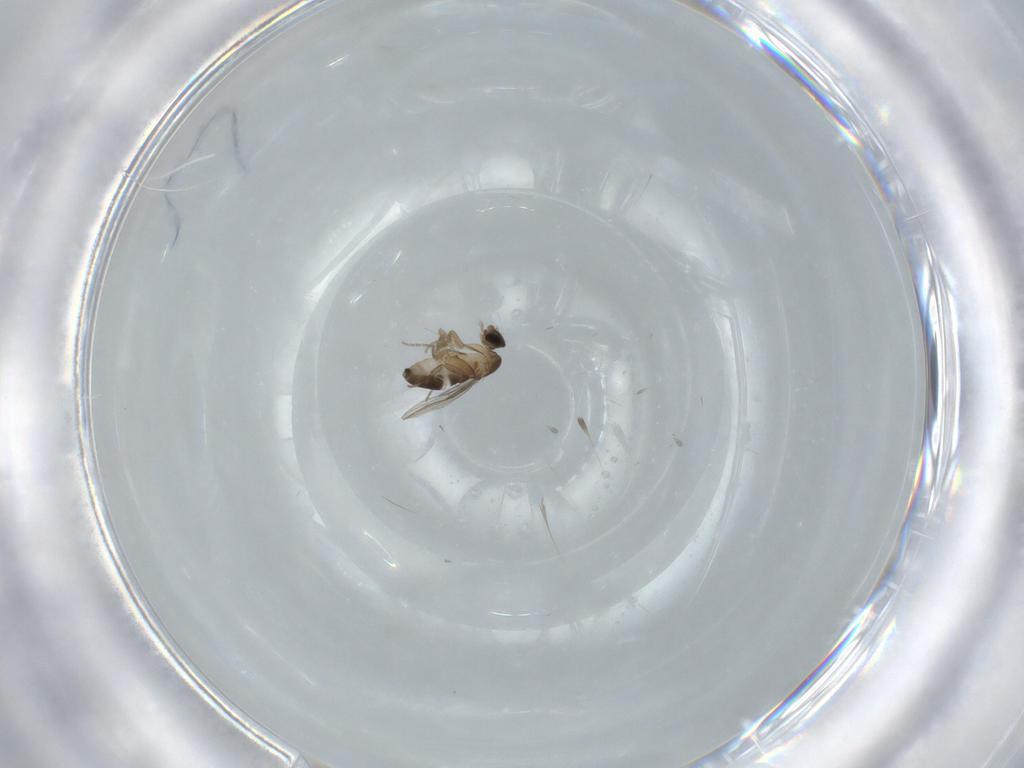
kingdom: Animalia
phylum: Arthropoda
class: Insecta
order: Diptera
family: Phoridae
